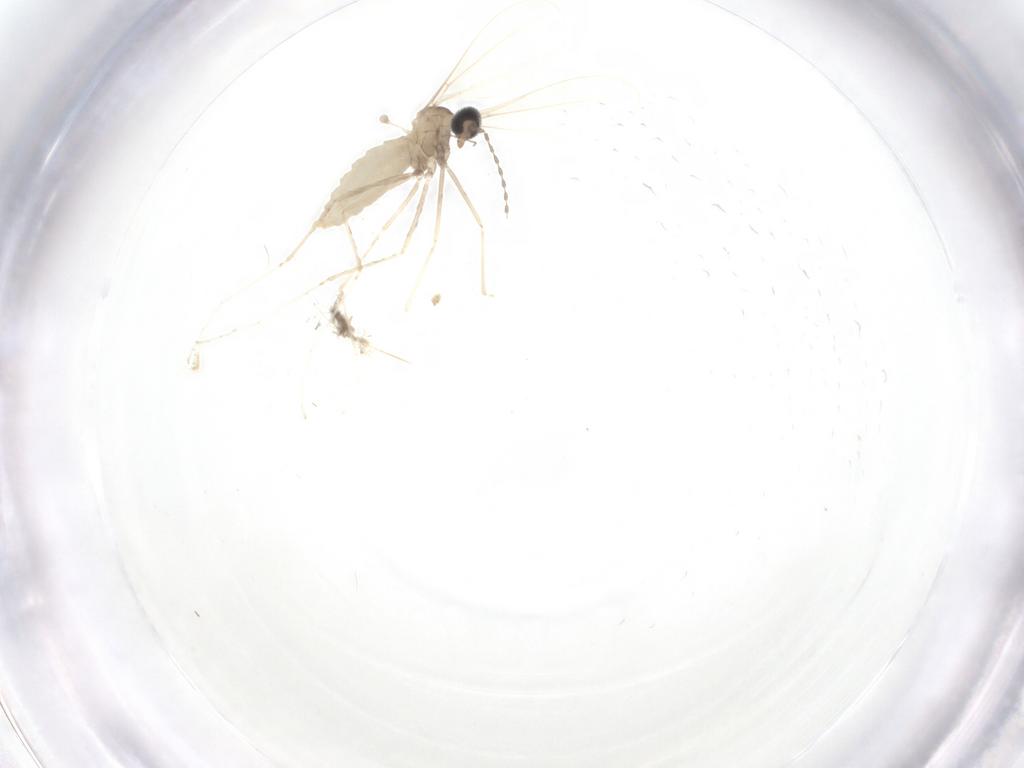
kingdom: Animalia
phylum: Arthropoda
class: Insecta
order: Diptera
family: Cecidomyiidae
